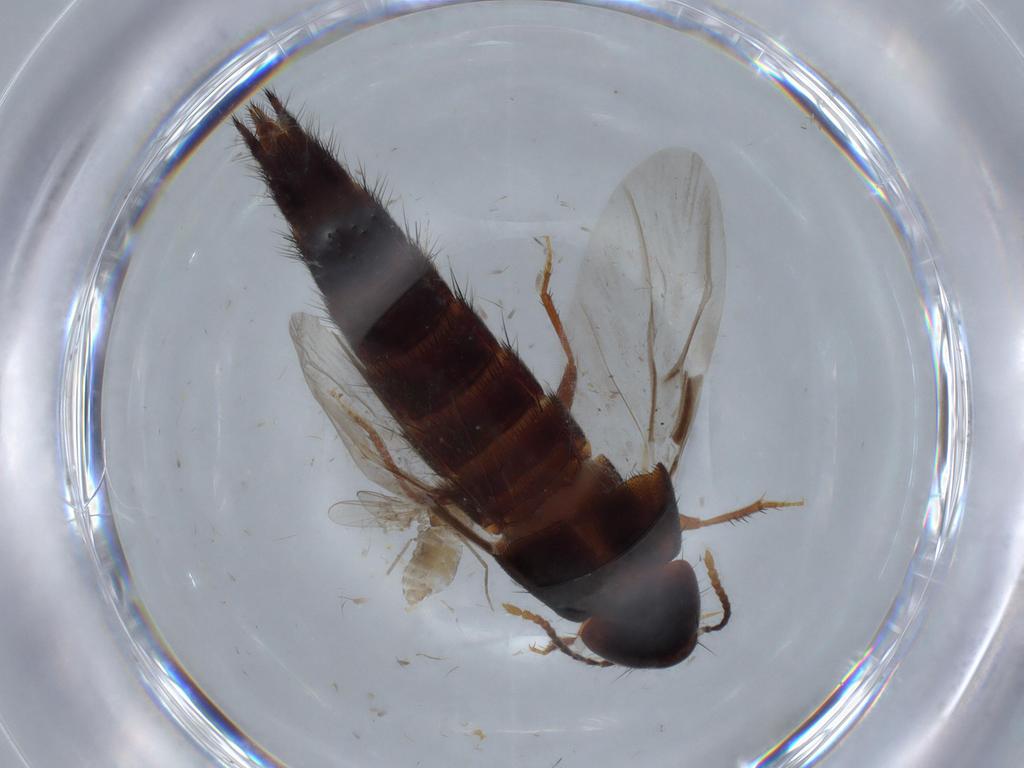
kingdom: Animalia
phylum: Arthropoda
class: Insecta
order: Coleoptera
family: Staphylinidae
